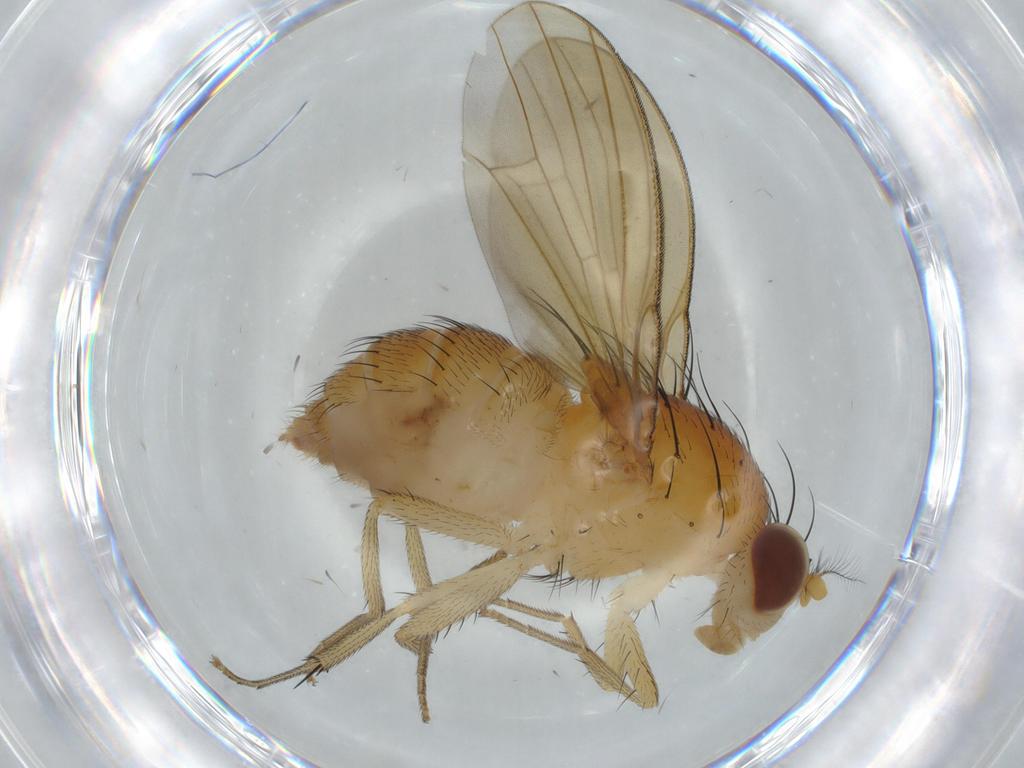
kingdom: Animalia
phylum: Arthropoda
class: Insecta
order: Diptera
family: Lauxaniidae
